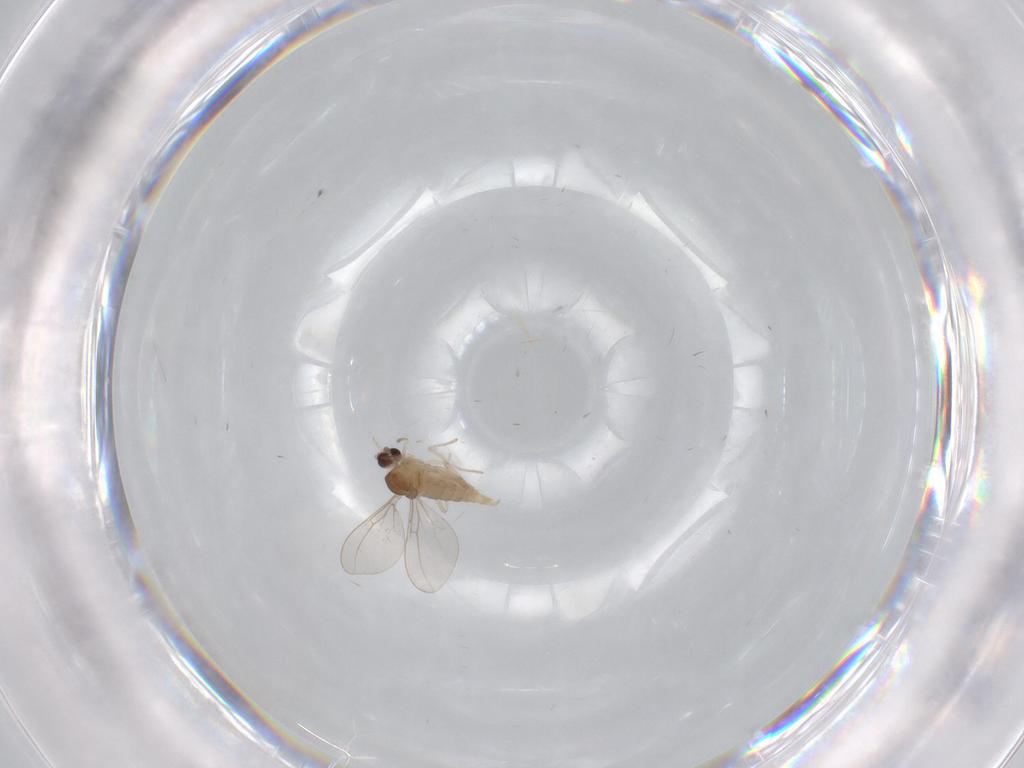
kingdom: Animalia
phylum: Arthropoda
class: Insecta
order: Diptera
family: Cecidomyiidae
